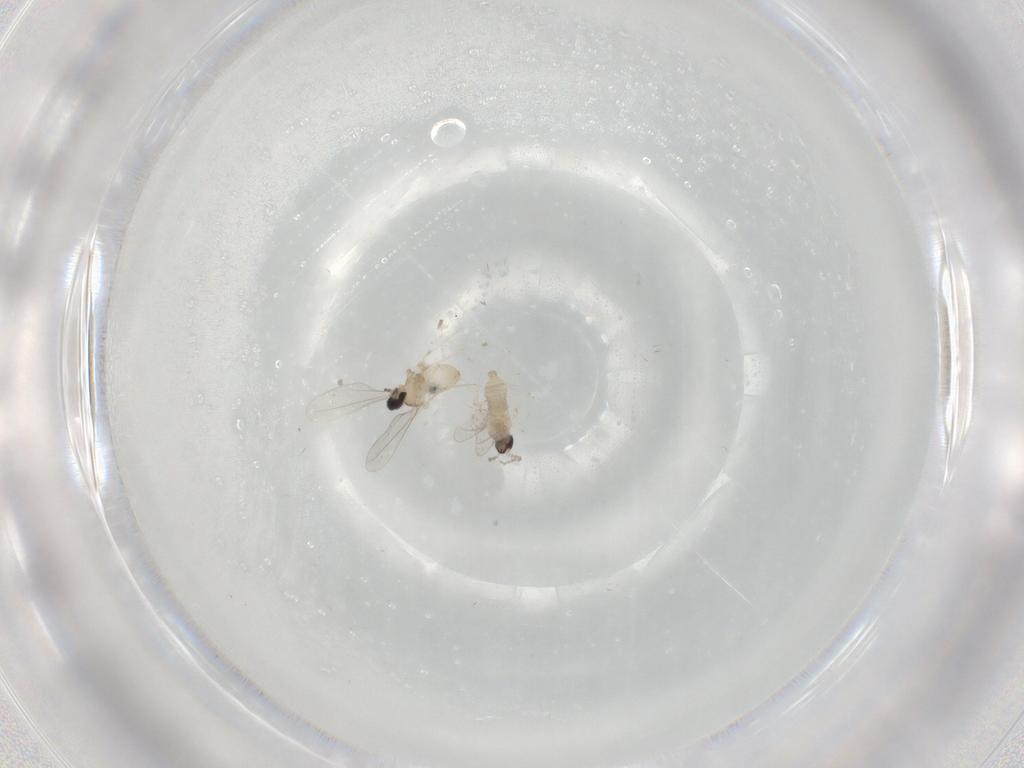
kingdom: Animalia
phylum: Arthropoda
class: Insecta
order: Diptera
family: Cecidomyiidae
